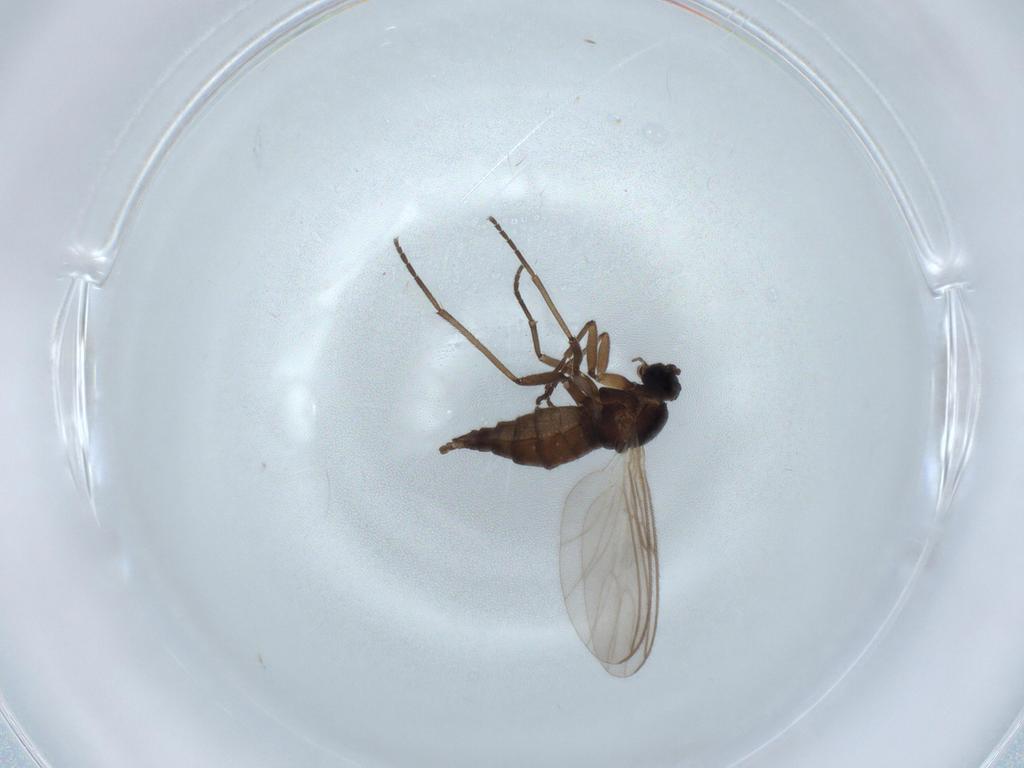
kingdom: Animalia
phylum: Arthropoda
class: Insecta
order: Diptera
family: Sciaridae
